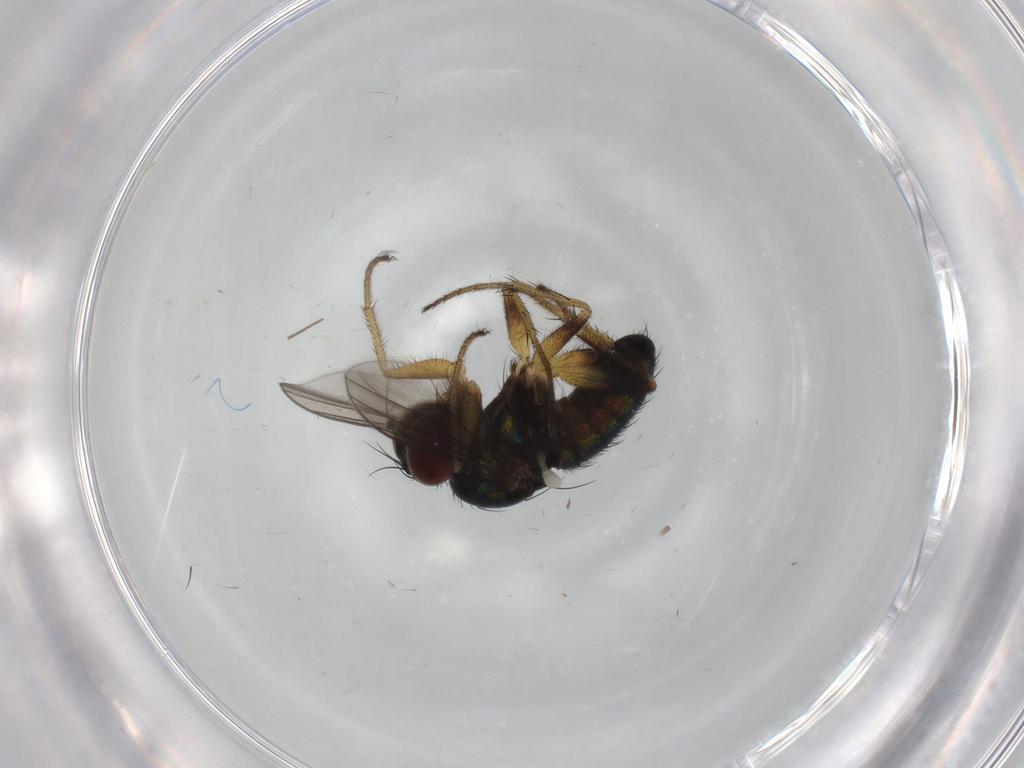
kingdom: Animalia
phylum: Arthropoda
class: Insecta
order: Diptera
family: Dolichopodidae
